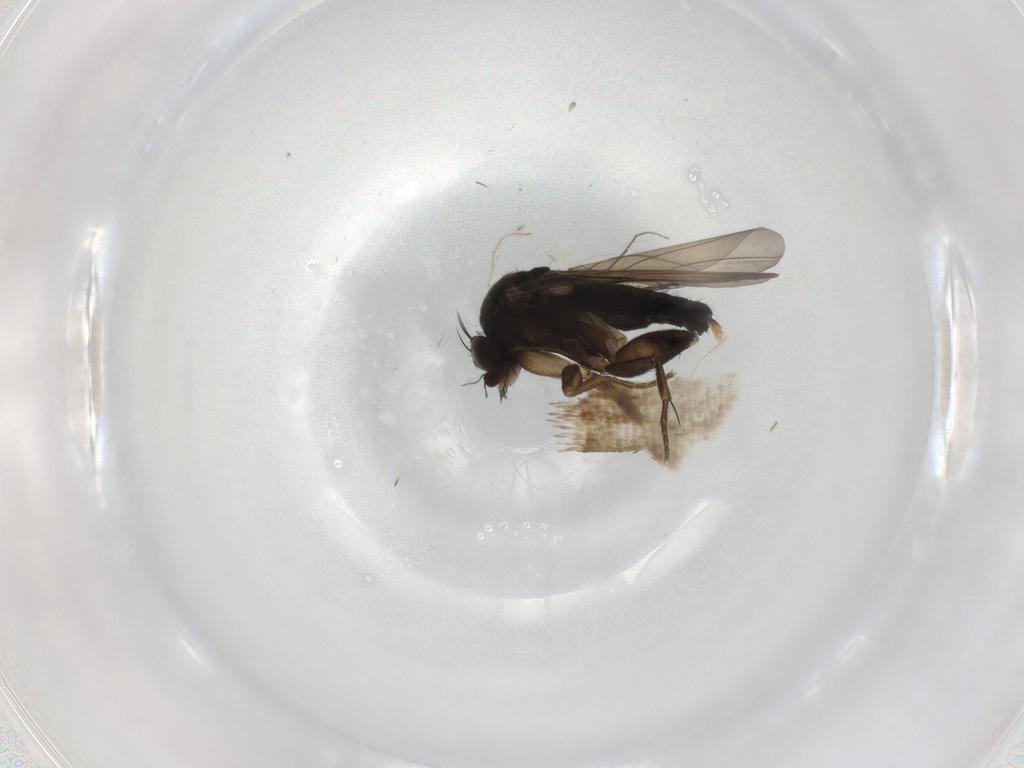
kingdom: Animalia
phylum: Arthropoda
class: Insecta
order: Diptera
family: Phoridae
